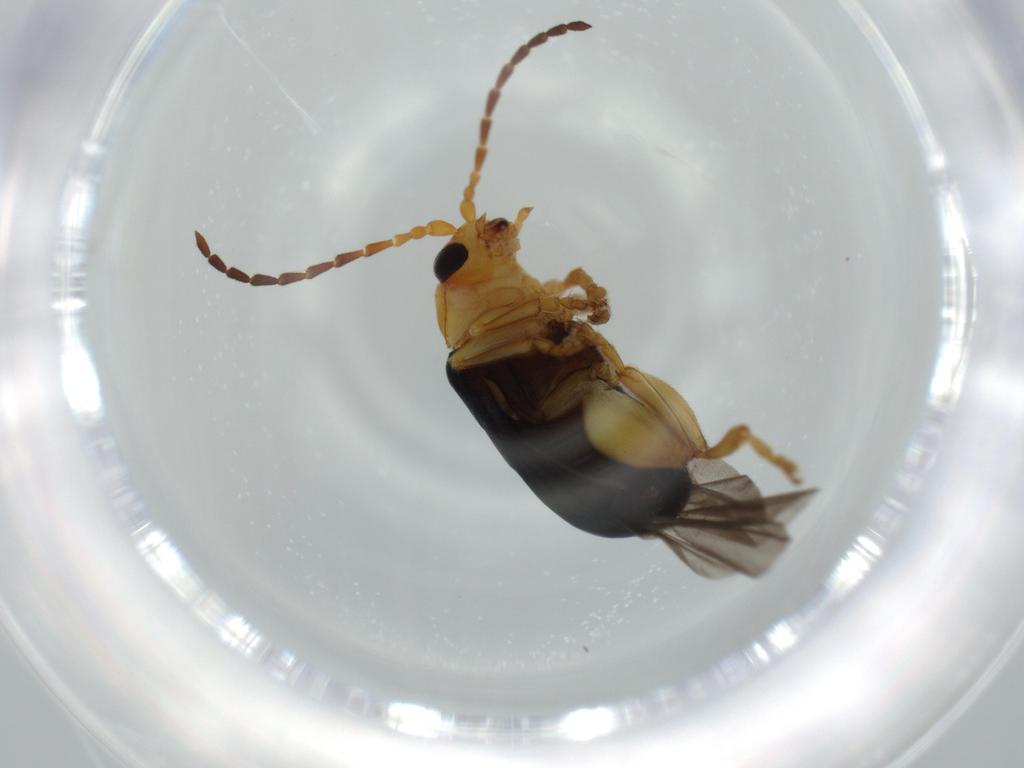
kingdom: Animalia
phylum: Arthropoda
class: Insecta
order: Coleoptera
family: Chrysomelidae
